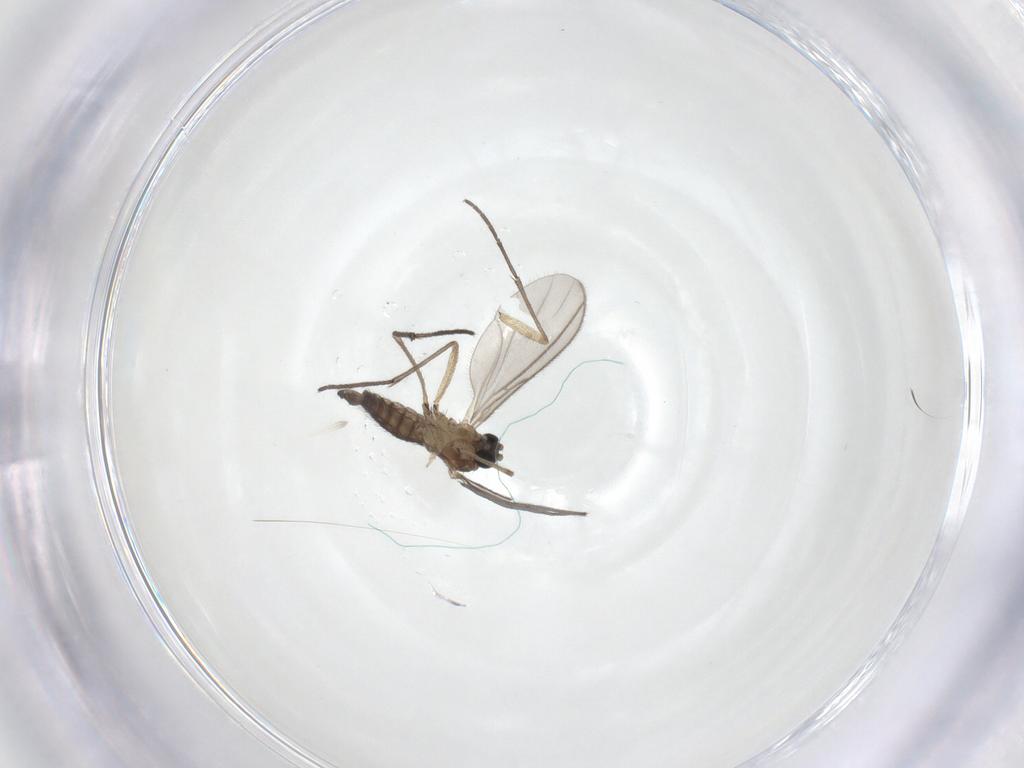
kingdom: Animalia
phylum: Arthropoda
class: Insecta
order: Diptera
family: Sciaridae
